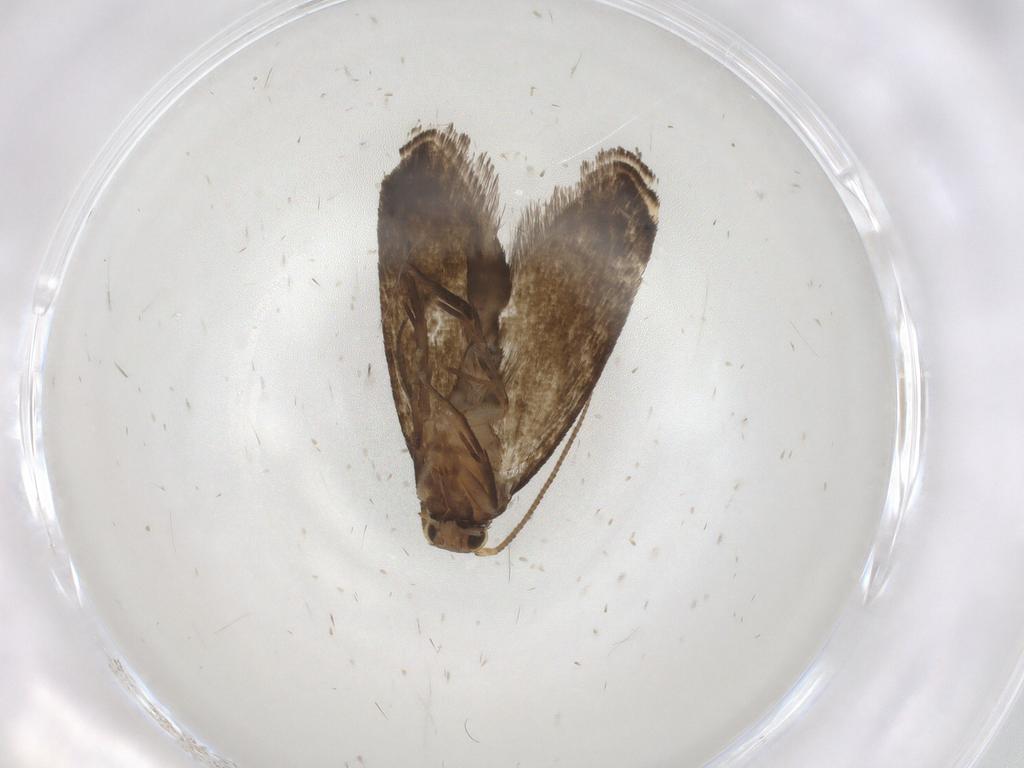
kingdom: Animalia
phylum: Arthropoda
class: Insecta
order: Lepidoptera
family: Tineidae
